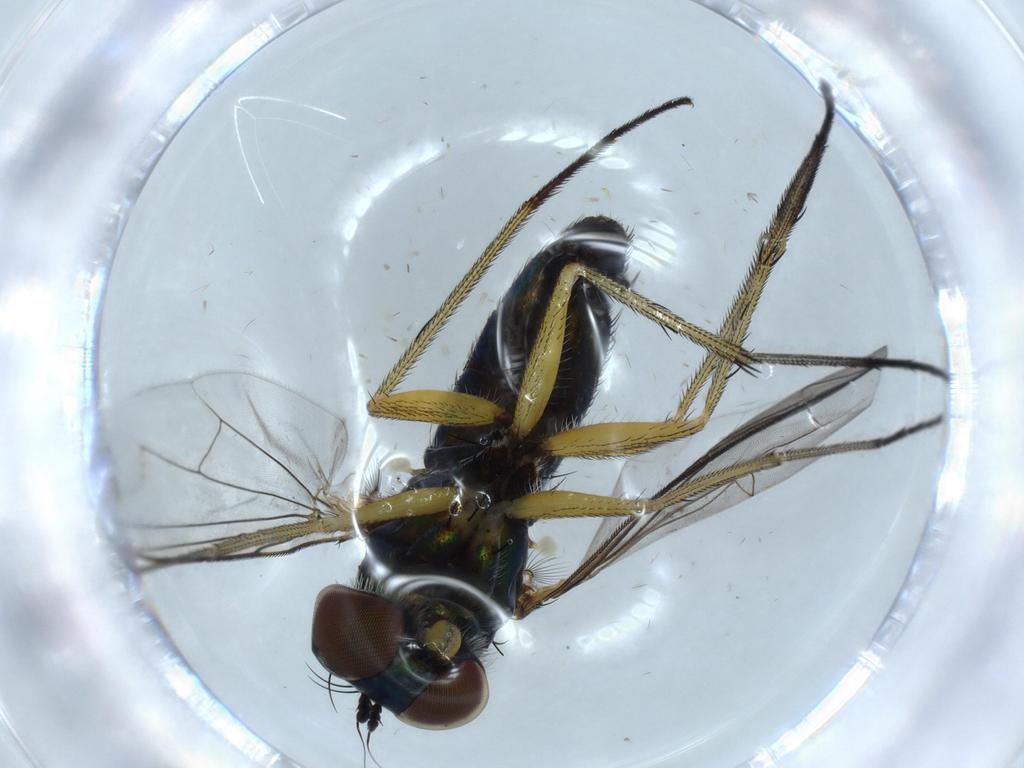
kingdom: Animalia
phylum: Arthropoda
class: Insecta
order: Diptera
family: Dolichopodidae
